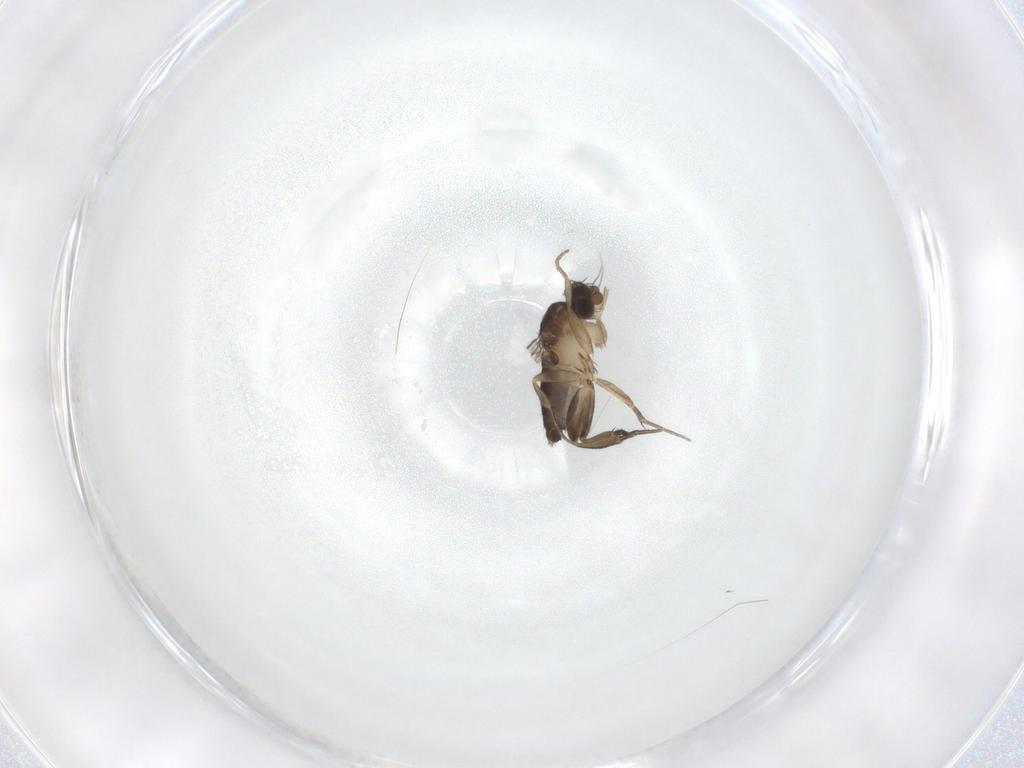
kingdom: Animalia
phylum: Arthropoda
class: Insecta
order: Diptera
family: Phoridae
